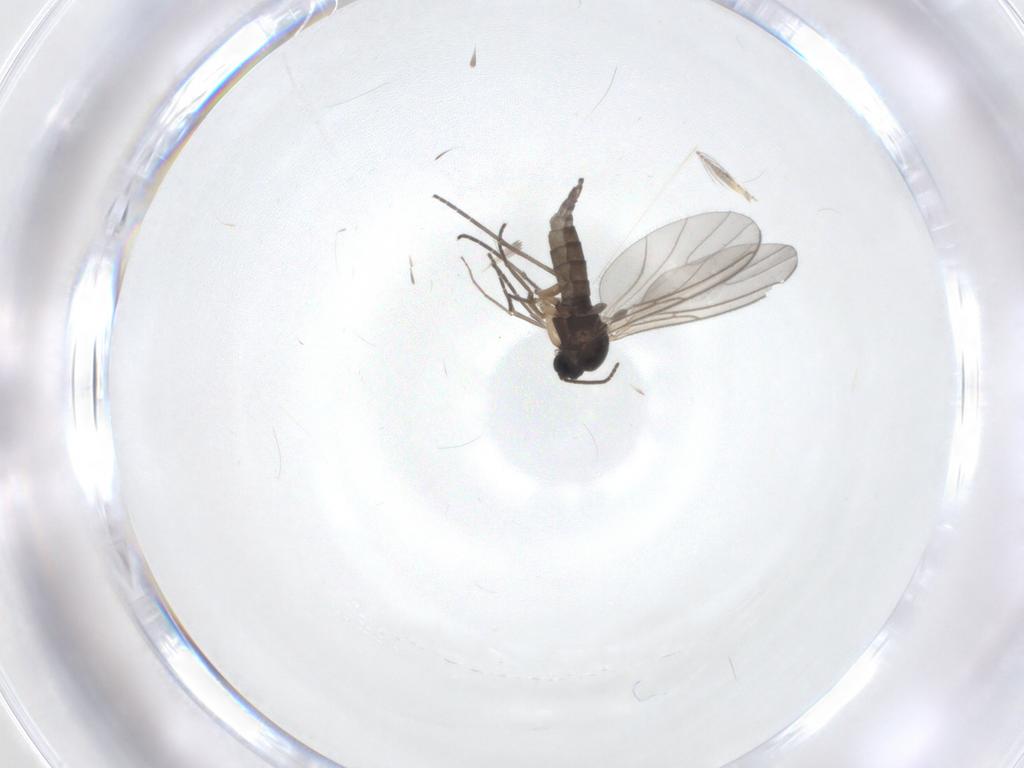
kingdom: Animalia
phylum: Arthropoda
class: Insecta
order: Diptera
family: Sciaridae
